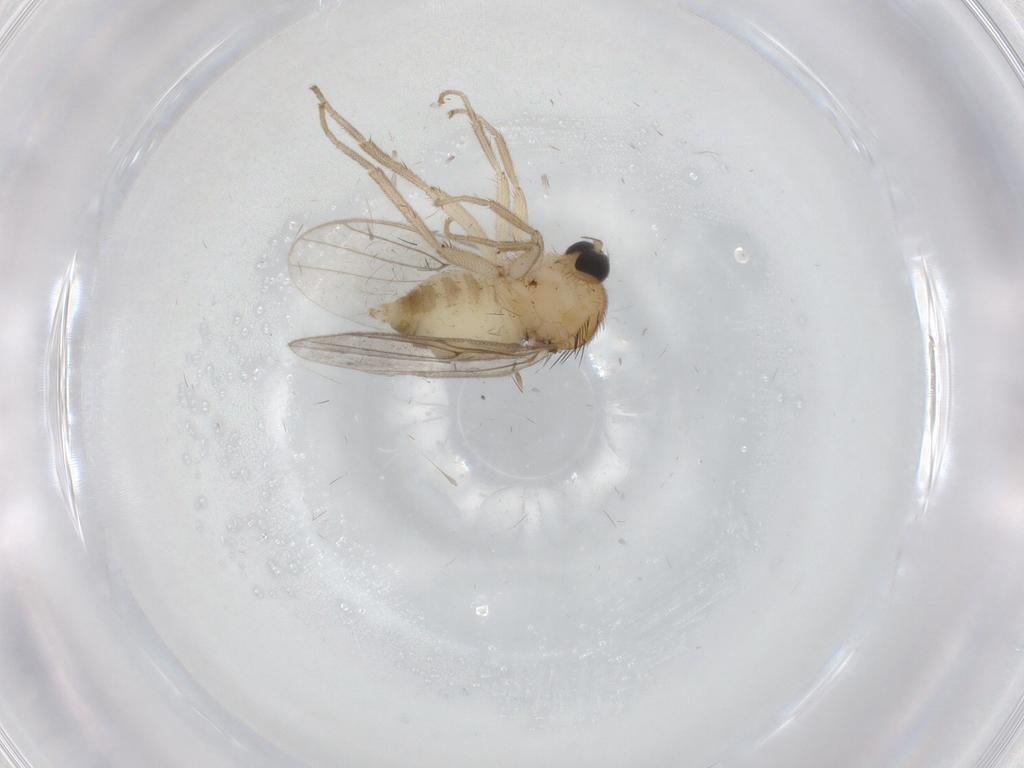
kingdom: Animalia
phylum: Arthropoda
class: Insecta
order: Diptera
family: Hybotidae
